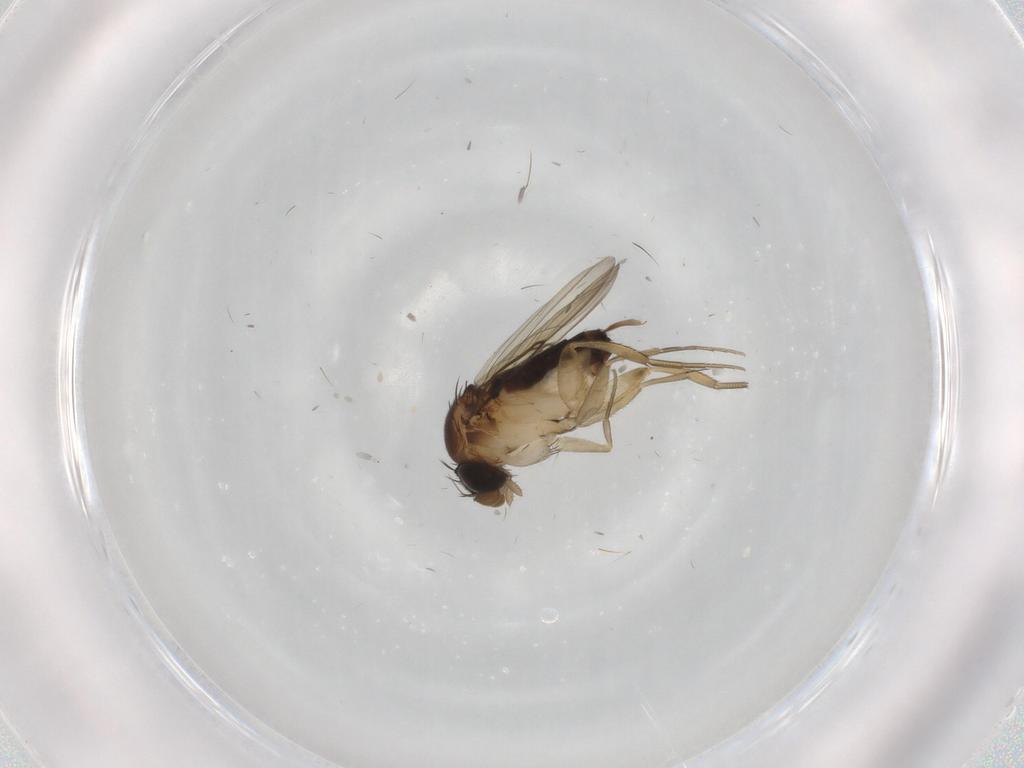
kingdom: Animalia
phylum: Arthropoda
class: Insecta
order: Diptera
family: Phoridae
